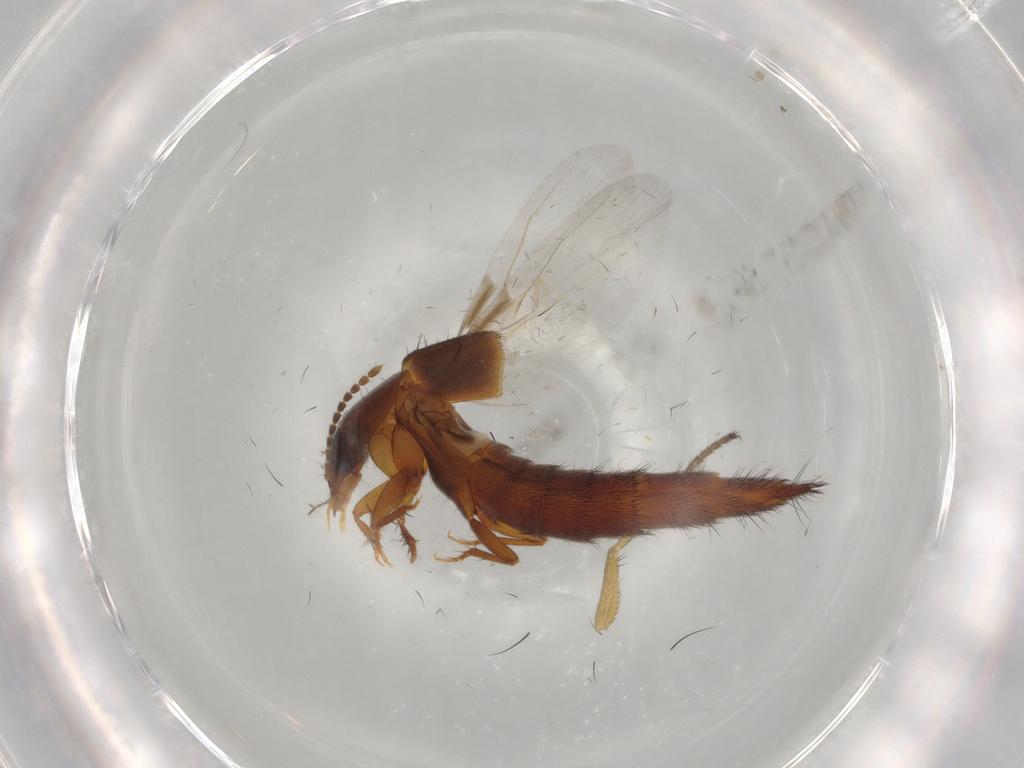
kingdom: Animalia
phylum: Arthropoda
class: Insecta
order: Coleoptera
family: Staphylinidae
